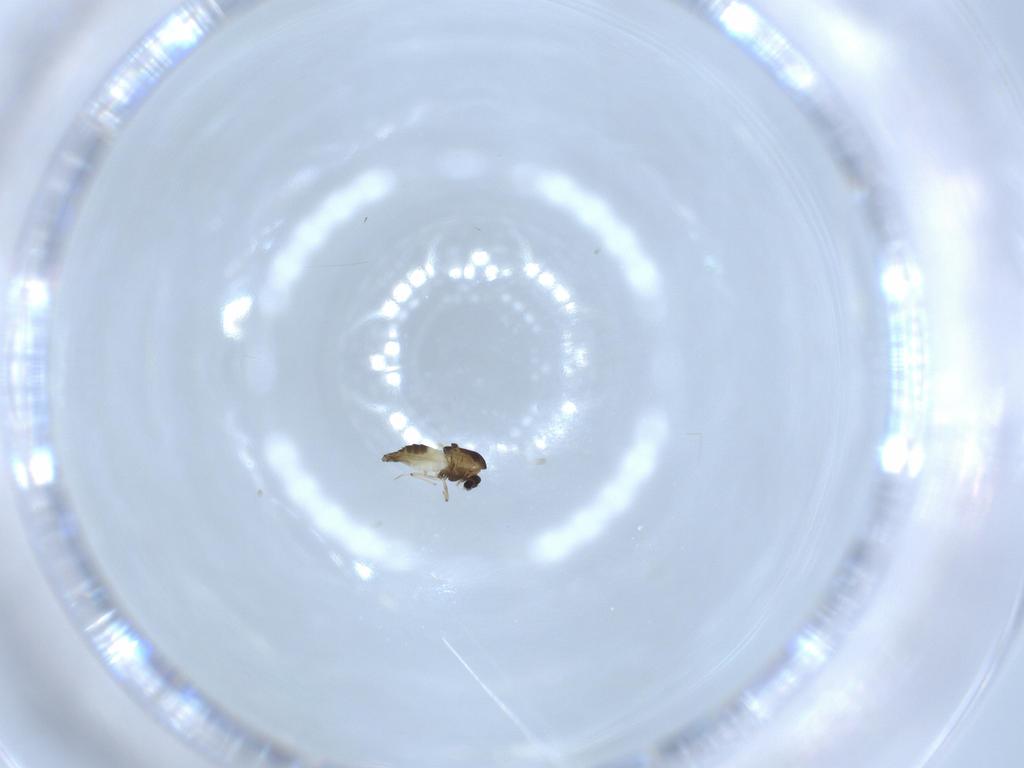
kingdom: Animalia
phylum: Arthropoda
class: Insecta
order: Diptera
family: Chironomidae
